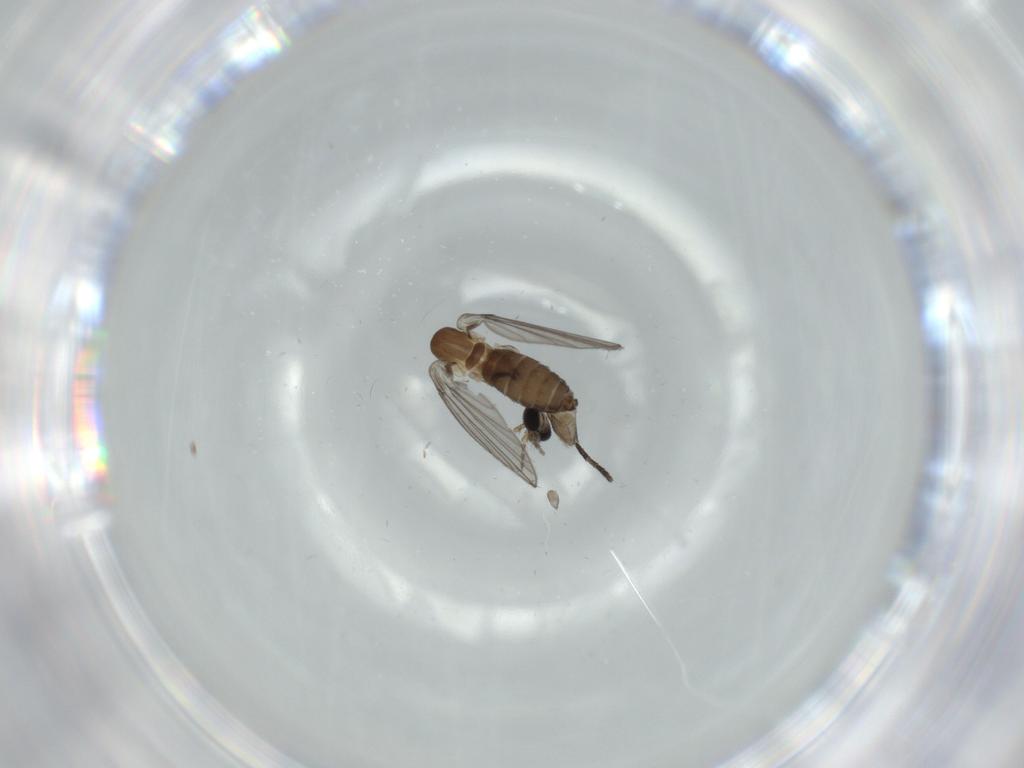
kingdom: Animalia
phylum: Arthropoda
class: Insecta
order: Diptera
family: Psychodidae
